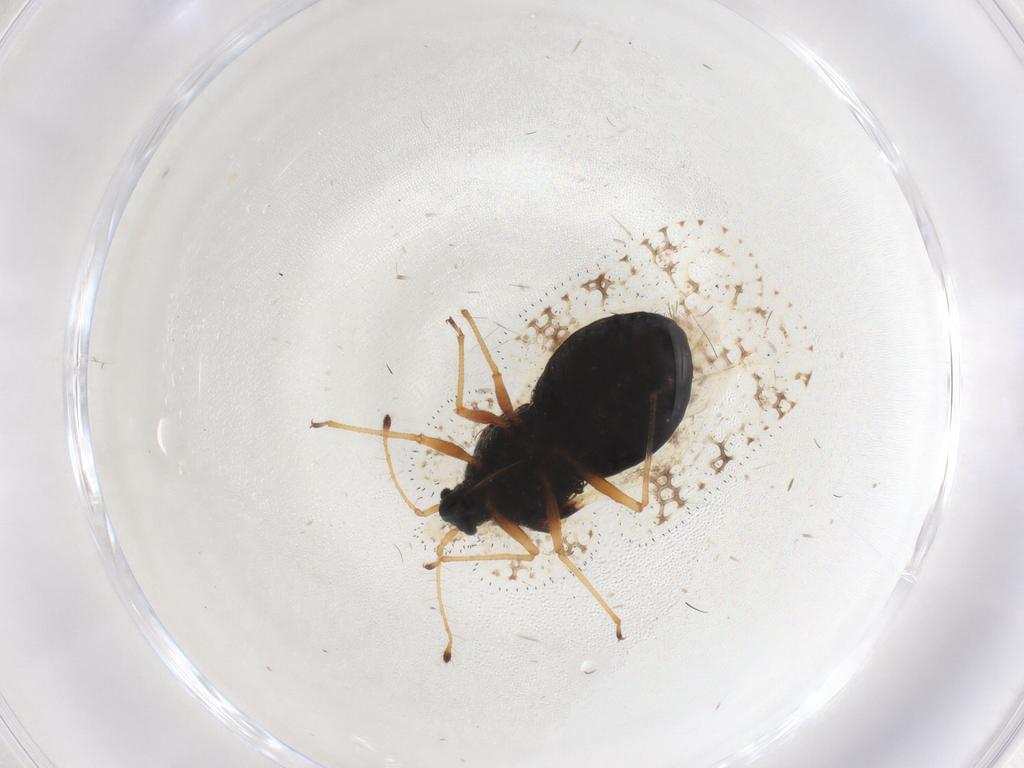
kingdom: Animalia
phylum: Arthropoda
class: Insecta
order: Hemiptera
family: Tingidae
